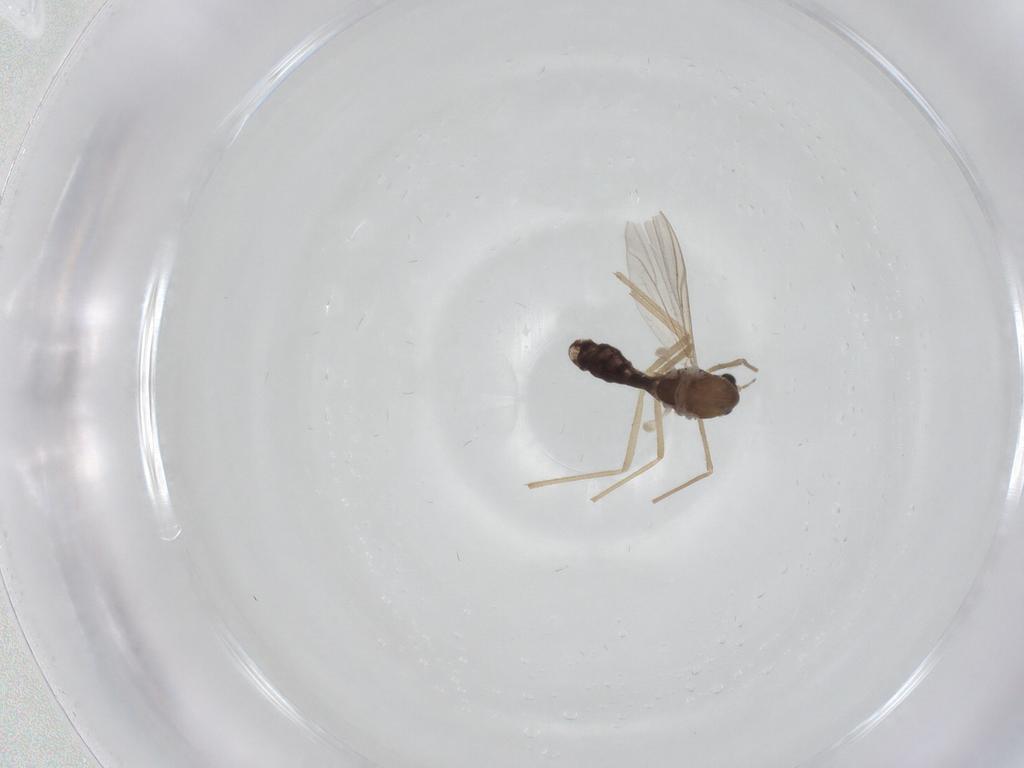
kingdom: Animalia
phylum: Arthropoda
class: Insecta
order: Diptera
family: Chironomidae
